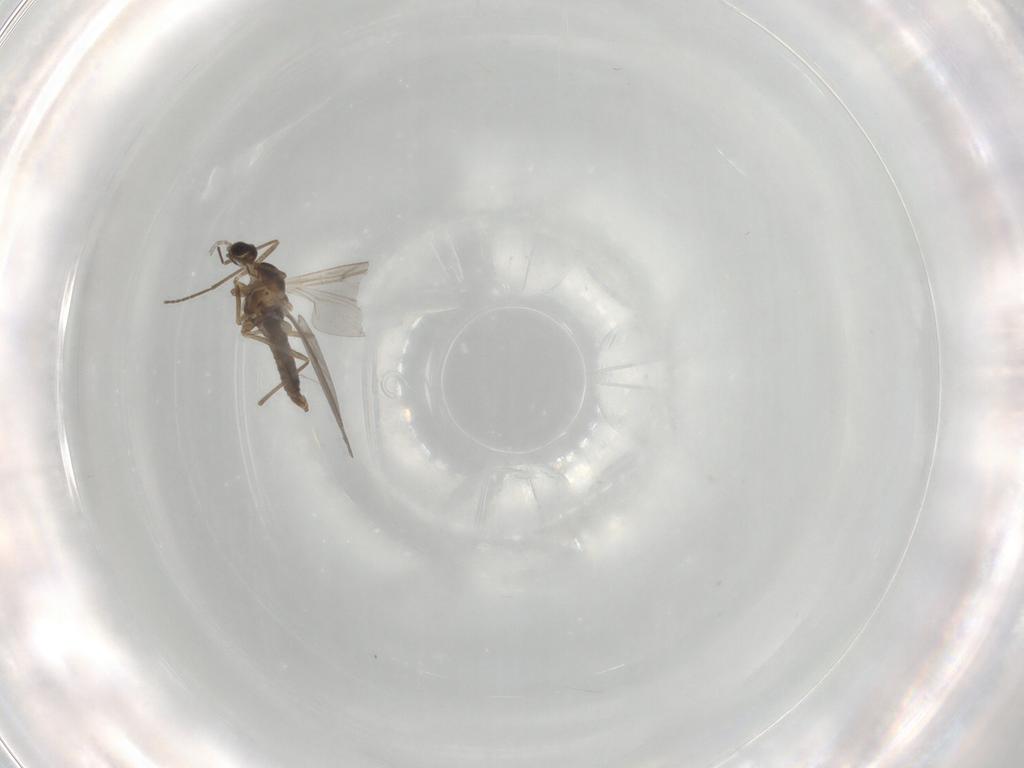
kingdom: Animalia
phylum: Arthropoda
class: Insecta
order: Diptera
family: Cecidomyiidae
